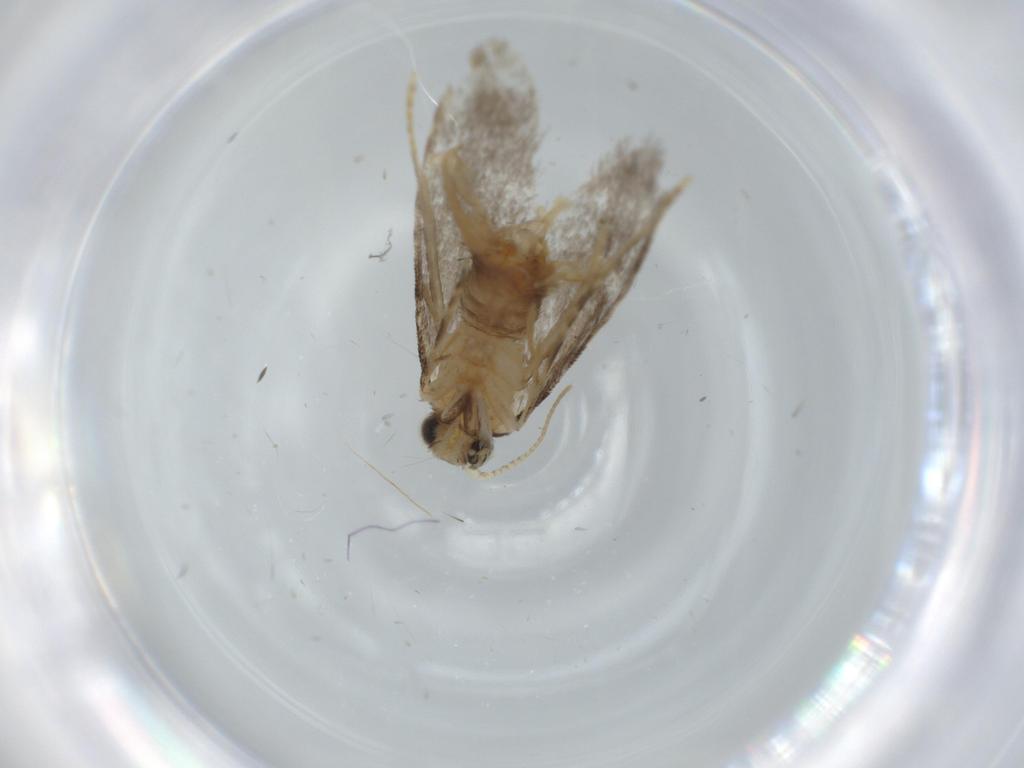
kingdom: Animalia
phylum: Arthropoda
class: Insecta
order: Lepidoptera
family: Tineidae
